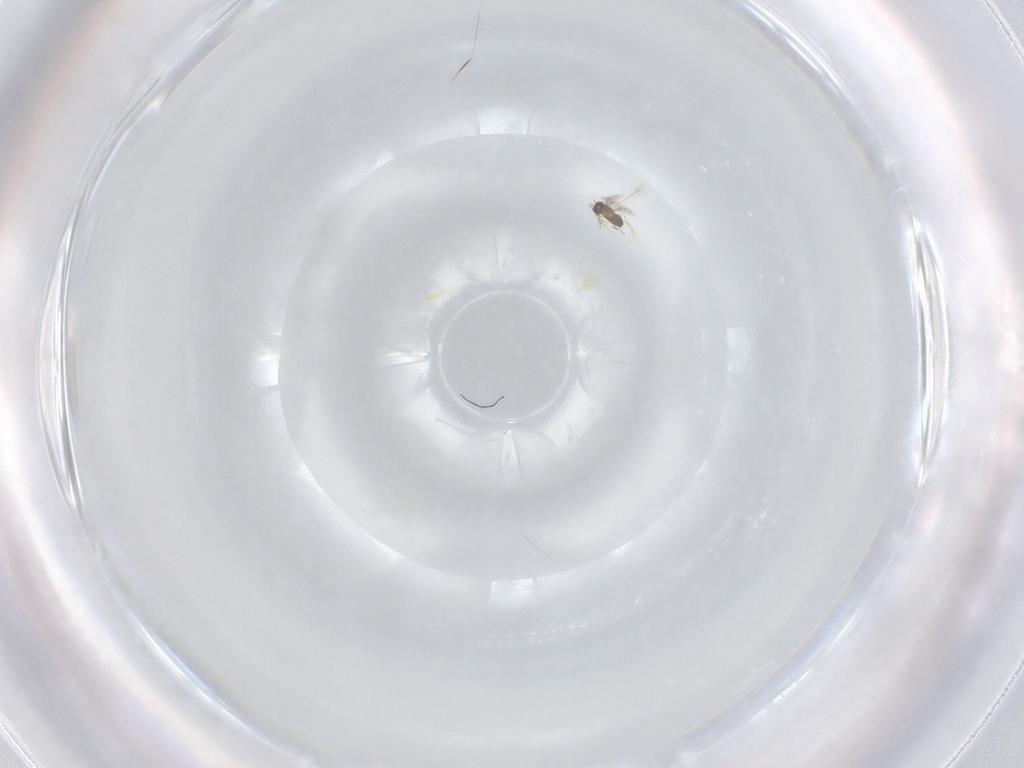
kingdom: Animalia
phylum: Arthropoda
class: Insecta
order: Hymenoptera
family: Mymaridae
